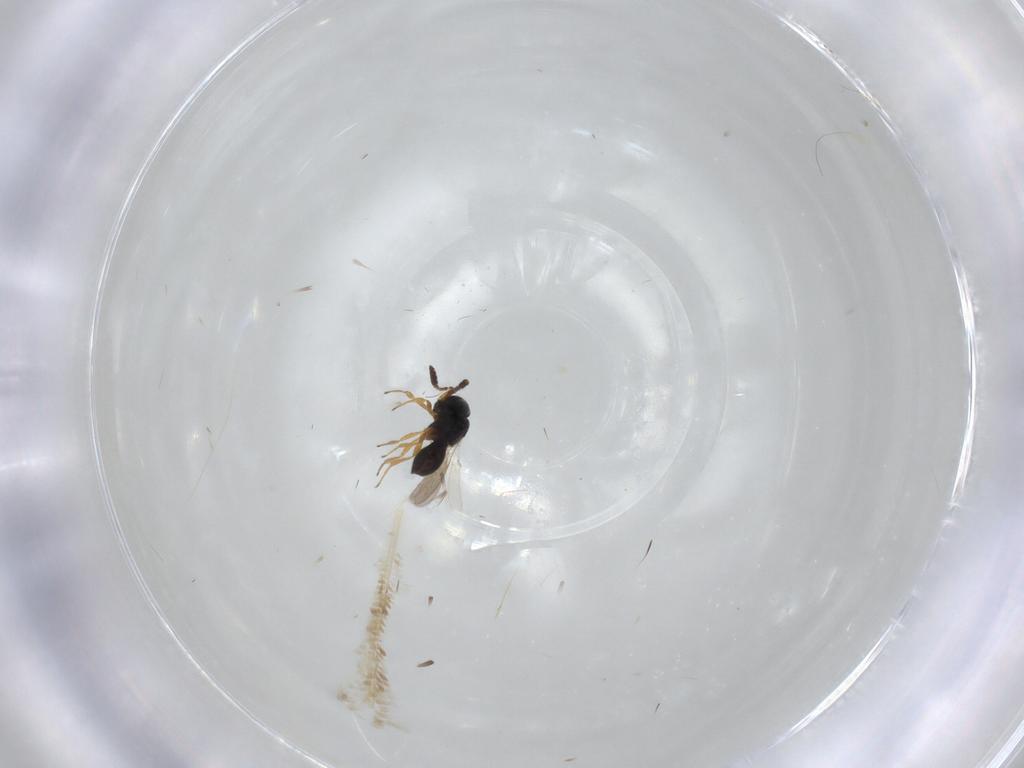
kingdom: Animalia
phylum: Arthropoda
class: Insecta
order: Hymenoptera
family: Scelionidae
